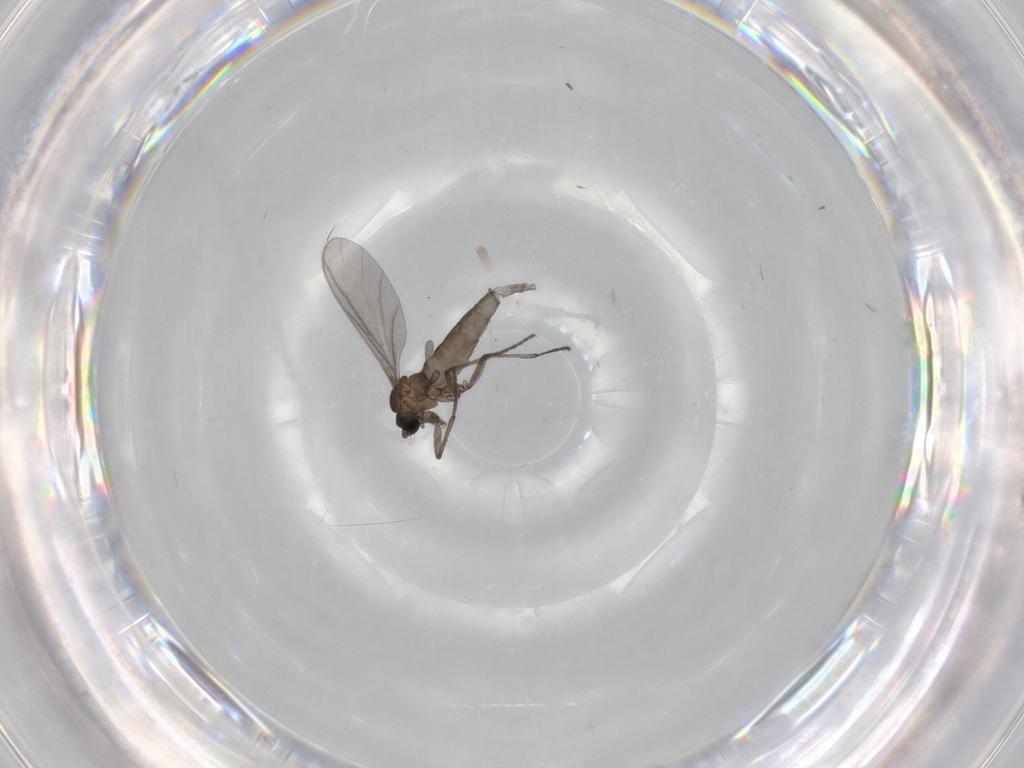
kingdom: Animalia
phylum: Arthropoda
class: Insecta
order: Diptera
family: Sciaridae
